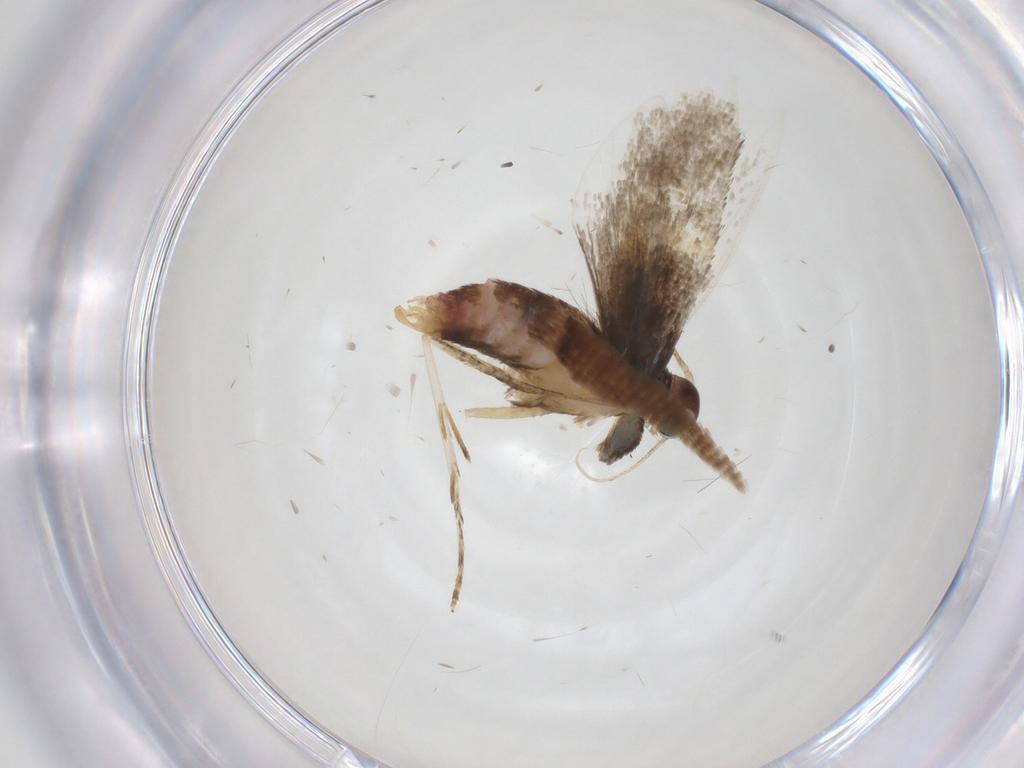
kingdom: Animalia
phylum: Arthropoda
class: Insecta
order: Lepidoptera
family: Oecophoridae
